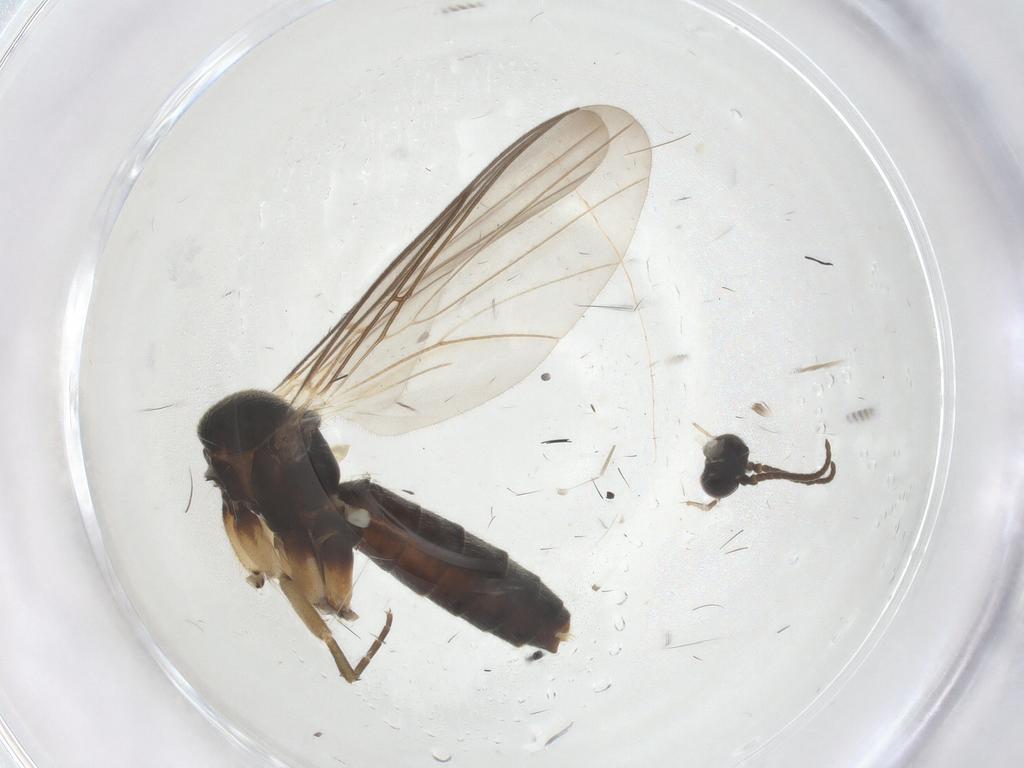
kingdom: Animalia
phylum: Arthropoda
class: Insecta
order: Diptera
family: Mycetophilidae
